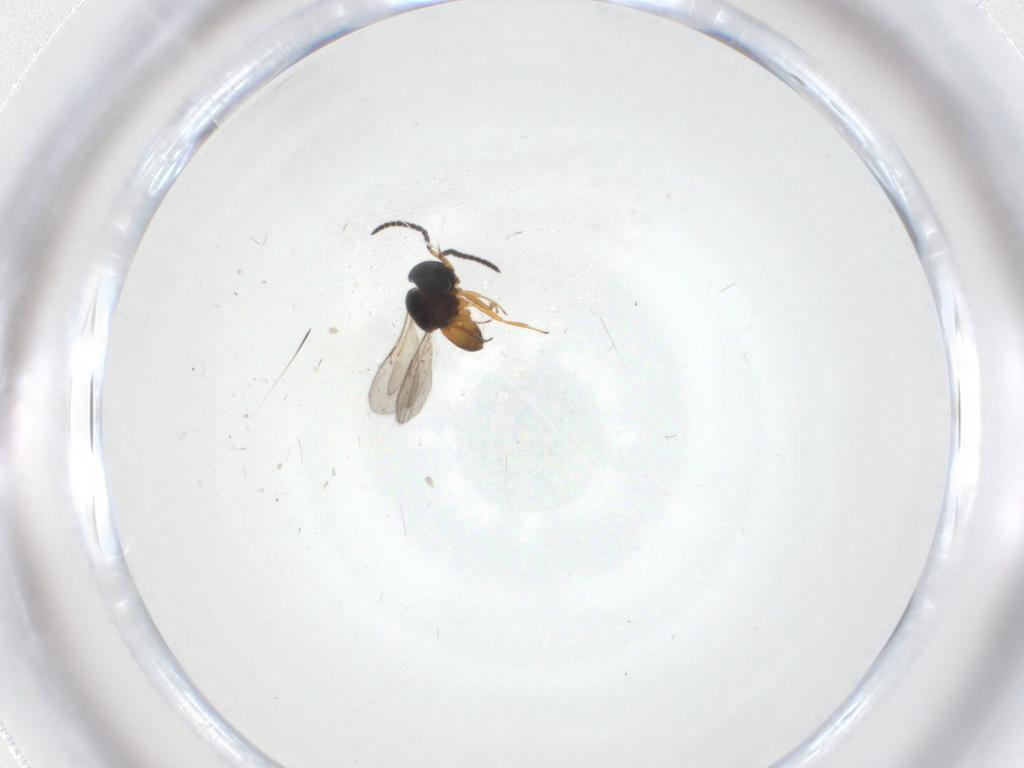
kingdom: Animalia
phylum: Arthropoda
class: Insecta
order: Hymenoptera
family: Scelionidae
